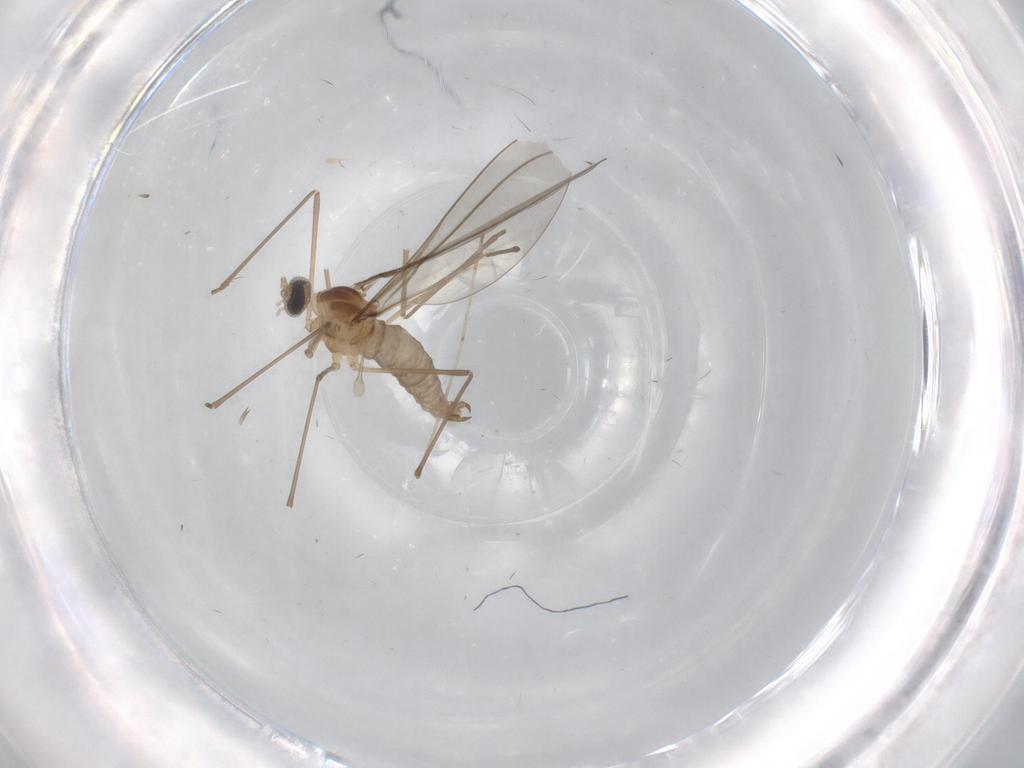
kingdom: Animalia
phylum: Arthropoda
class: Insecta
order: Diptera
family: Cecidomyiidae
